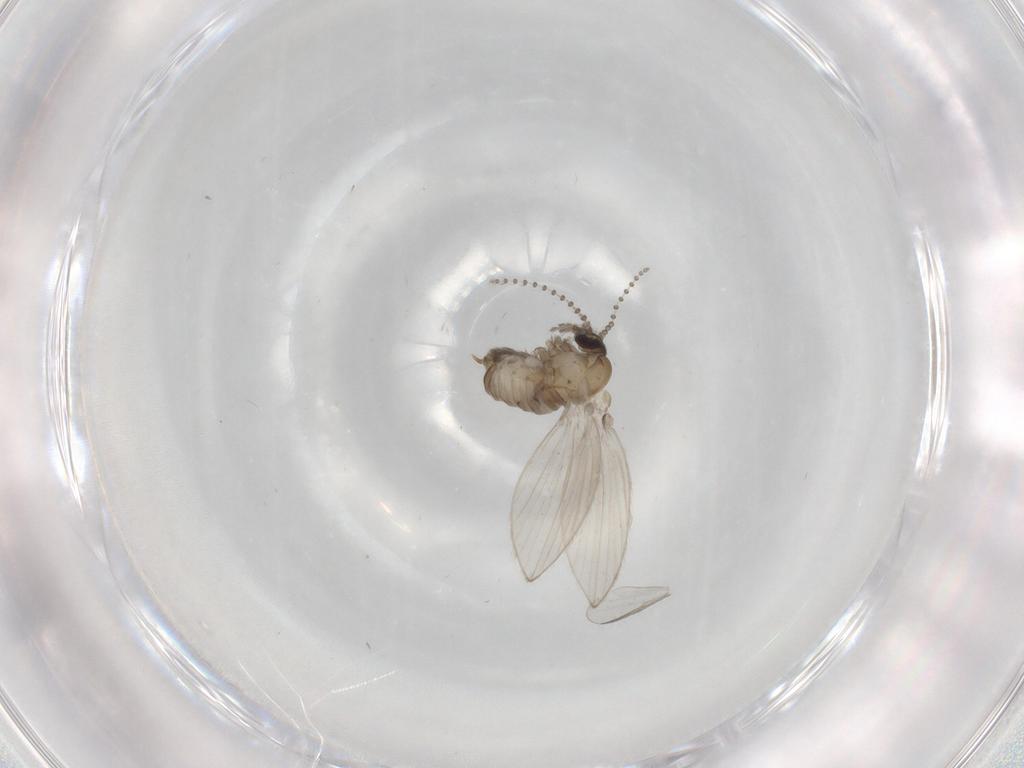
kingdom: Animalia
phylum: Arthropoda
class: Insecta
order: Diptera
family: Psychodidae
